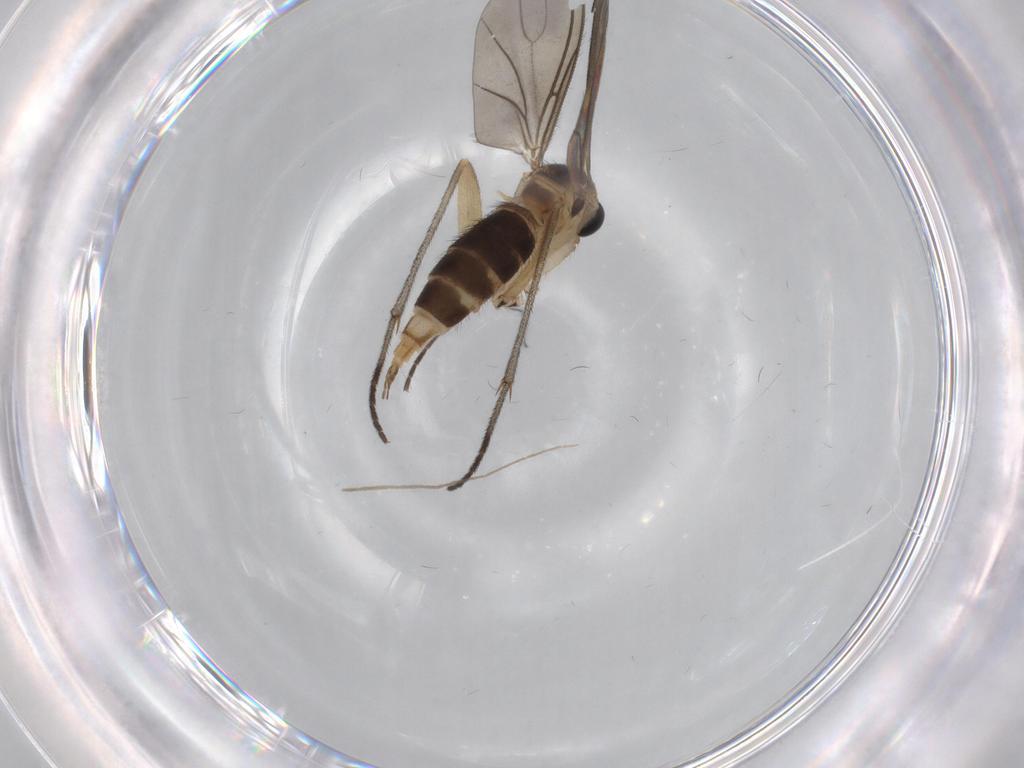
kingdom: Animalia
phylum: Arthropoda
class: Insecta
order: Diptera
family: Sciaridae
